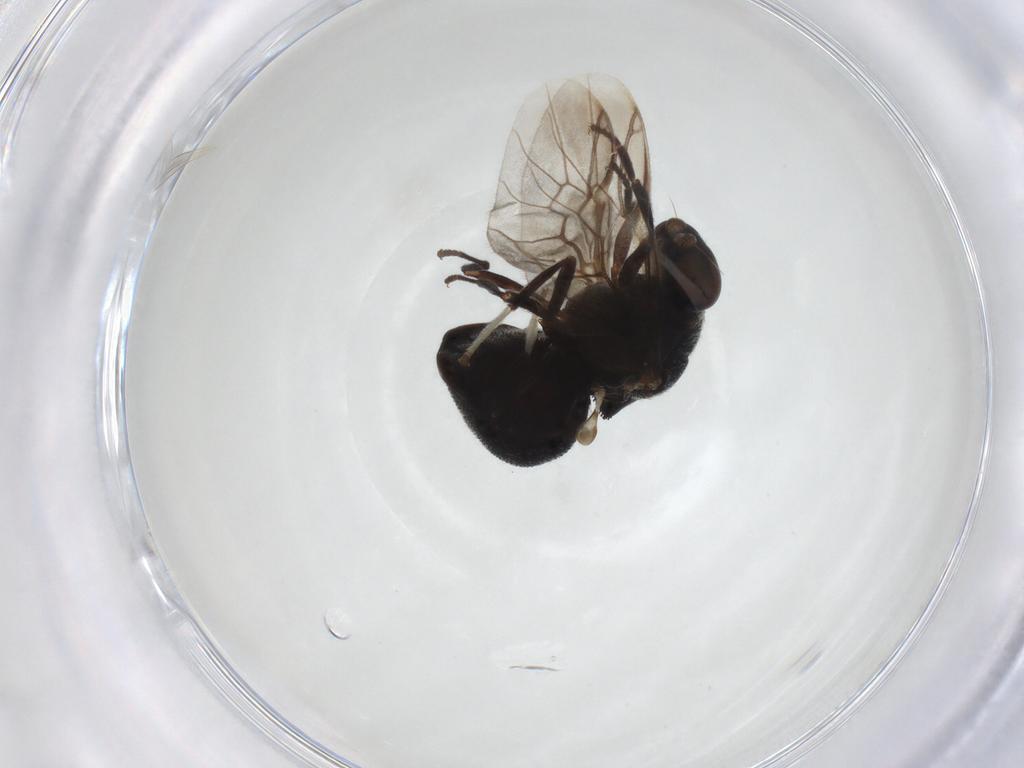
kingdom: Animalia
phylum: Arthropoda
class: Insecta
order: Diptera
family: Stratiomyidae
